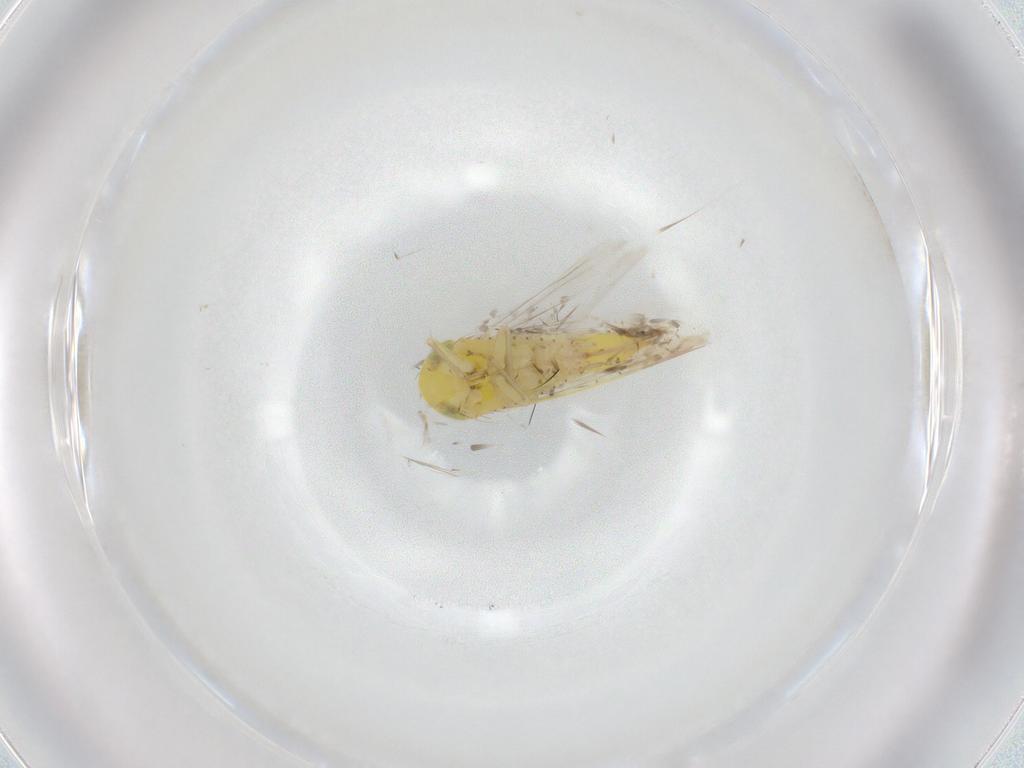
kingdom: Animalia
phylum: Arthropoda
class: Insecta
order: Hemiptera
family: Cicadellidae
